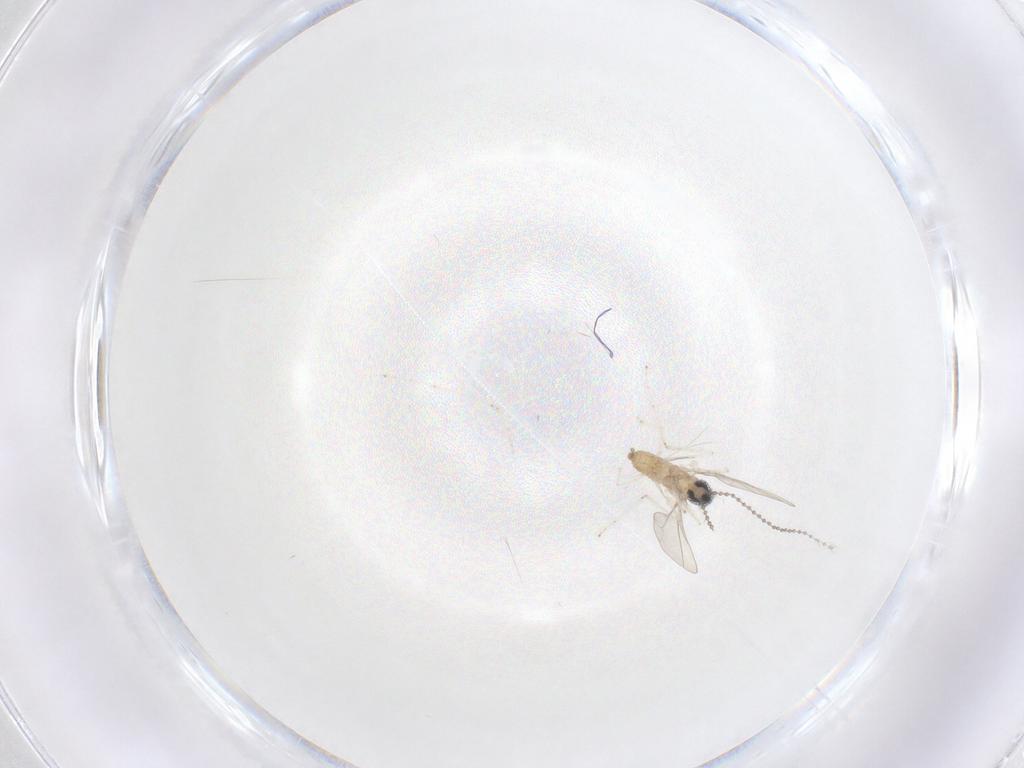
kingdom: Animalia
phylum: Arthropoda
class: Insecta
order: Diptera
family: Cecidomyiidae
